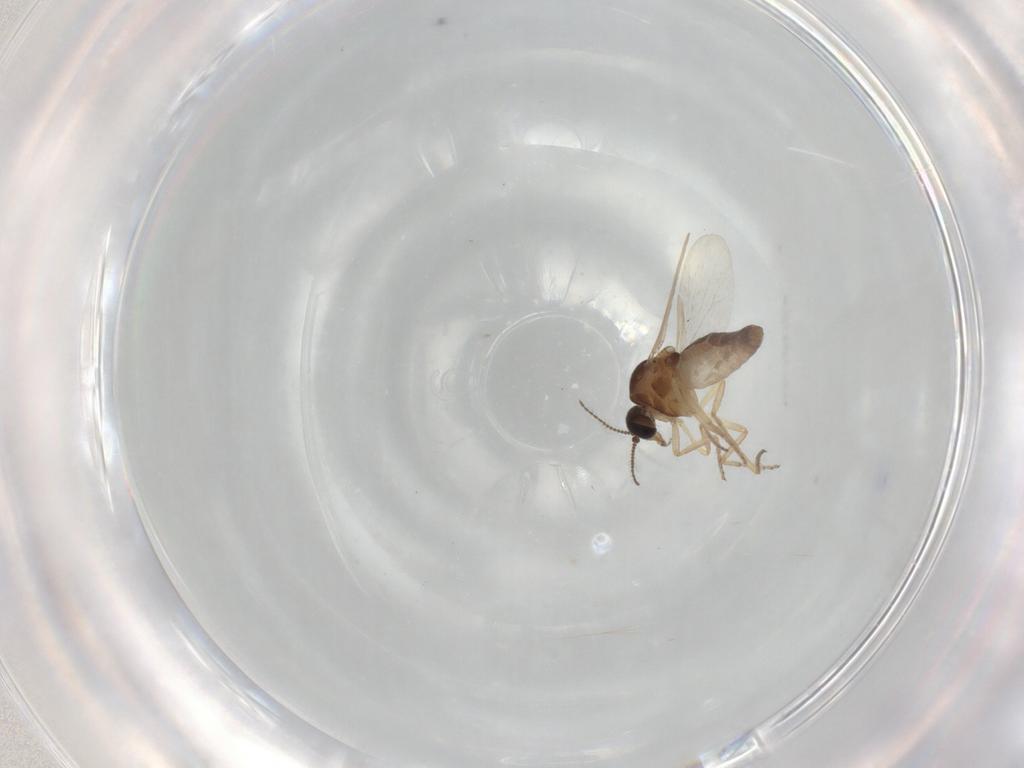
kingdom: Animalia
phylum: Arthropoda
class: Insecta
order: Diptera
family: Ceratopogonidae
